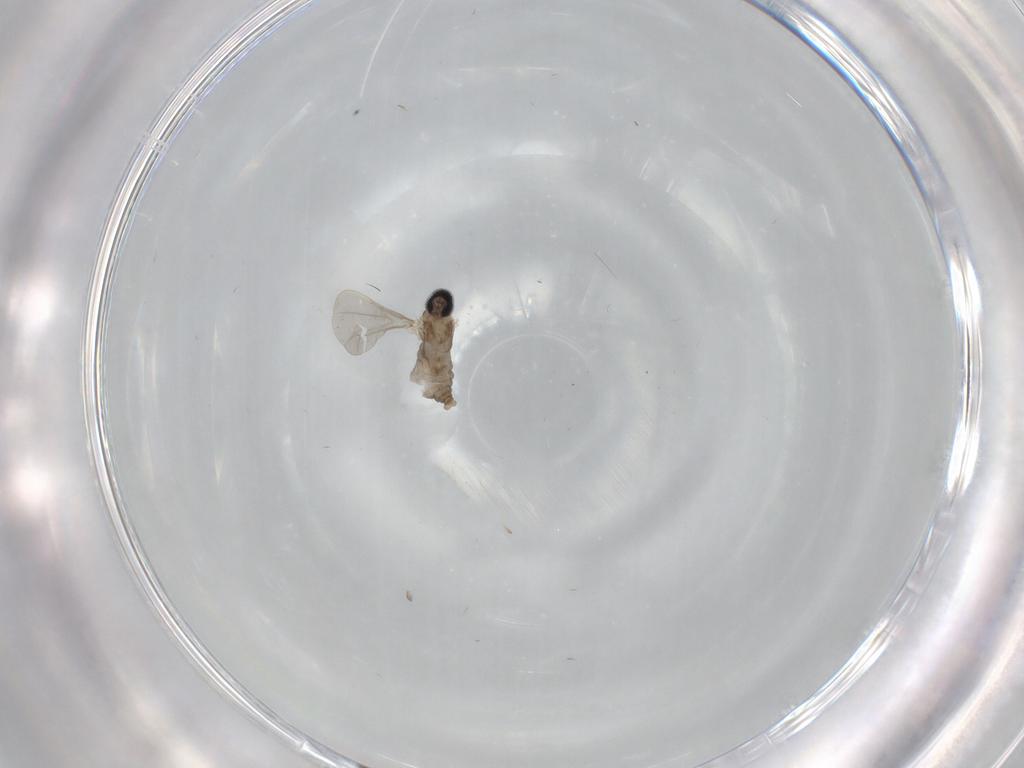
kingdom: Animalia
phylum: Arthropoda
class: Insecta
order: Diptera
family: Cecidomyiidae
